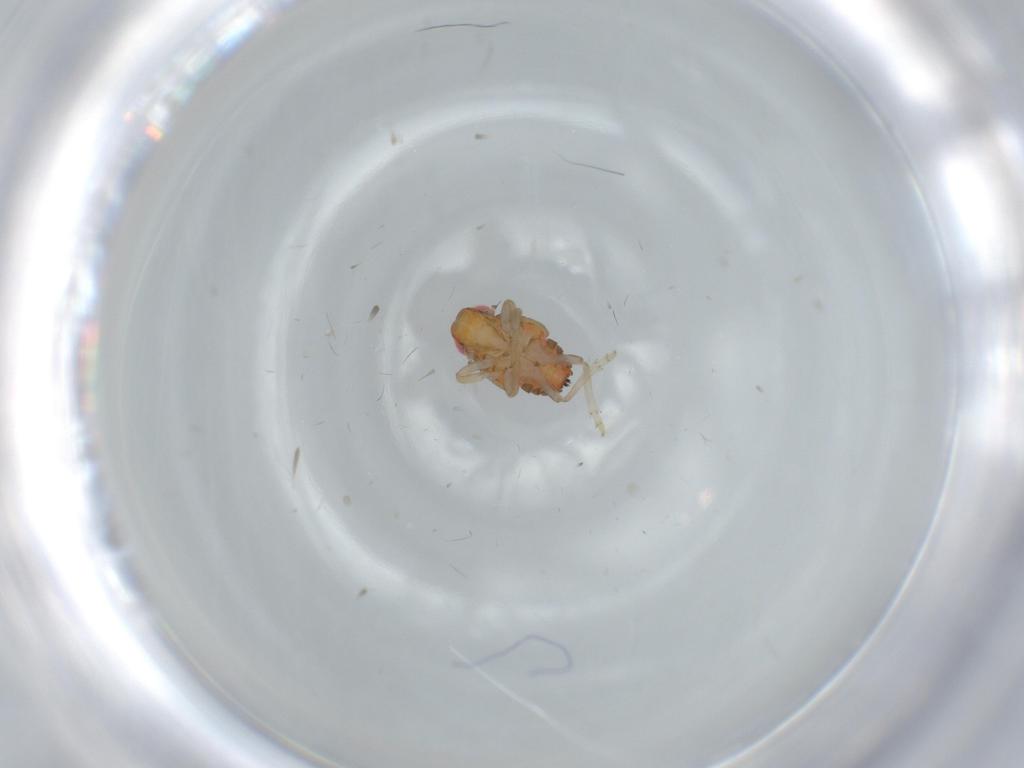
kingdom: Animalia
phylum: Arthropoda
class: Insecta
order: Hemiptera
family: Issidae
